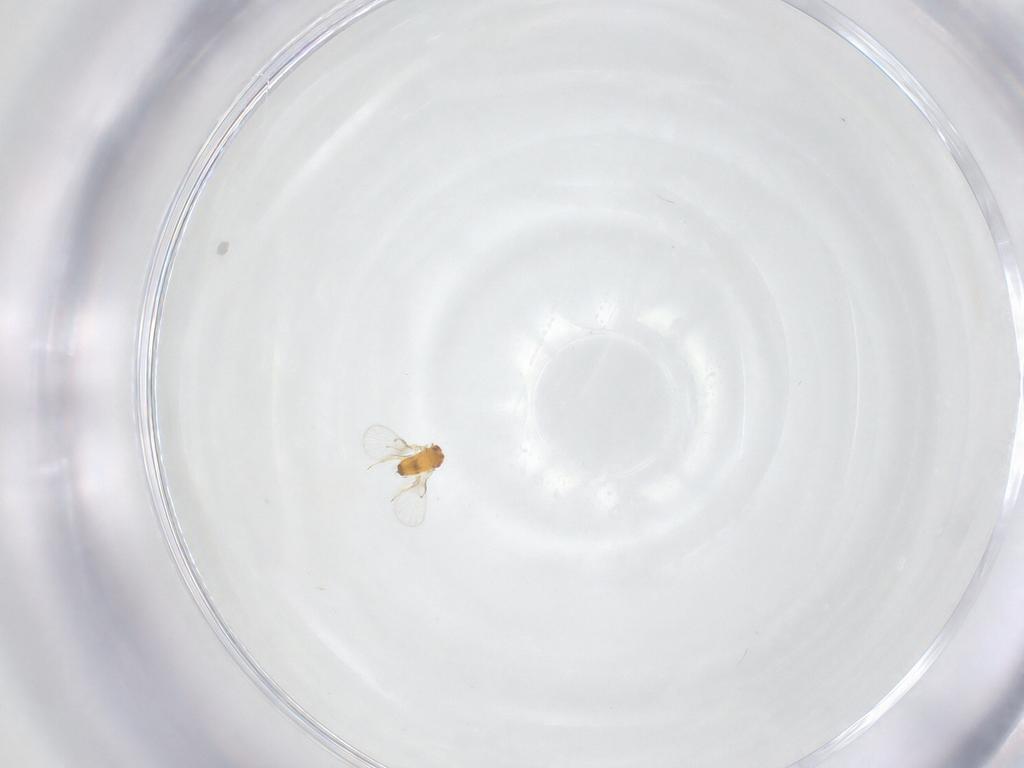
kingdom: Animalia
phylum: Arthropoda
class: Insecta
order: Hymenoptera
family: Trichogrammatidae
